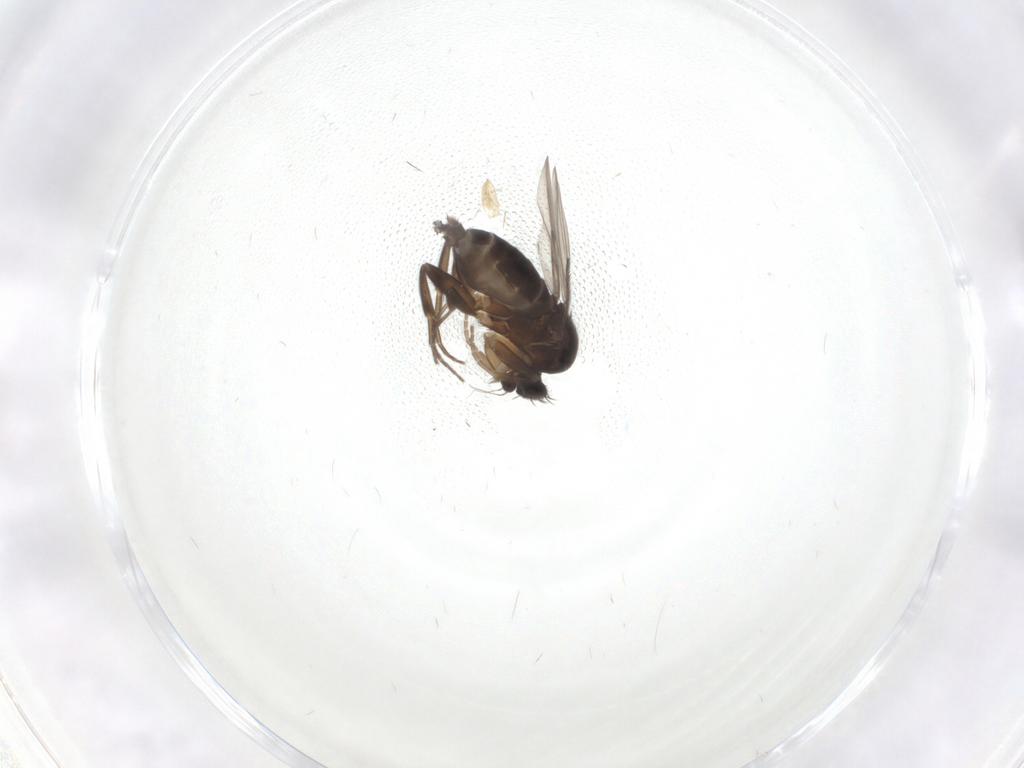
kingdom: Animalia
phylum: Arthropoda
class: Insecta
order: Diptera
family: Phoridae
